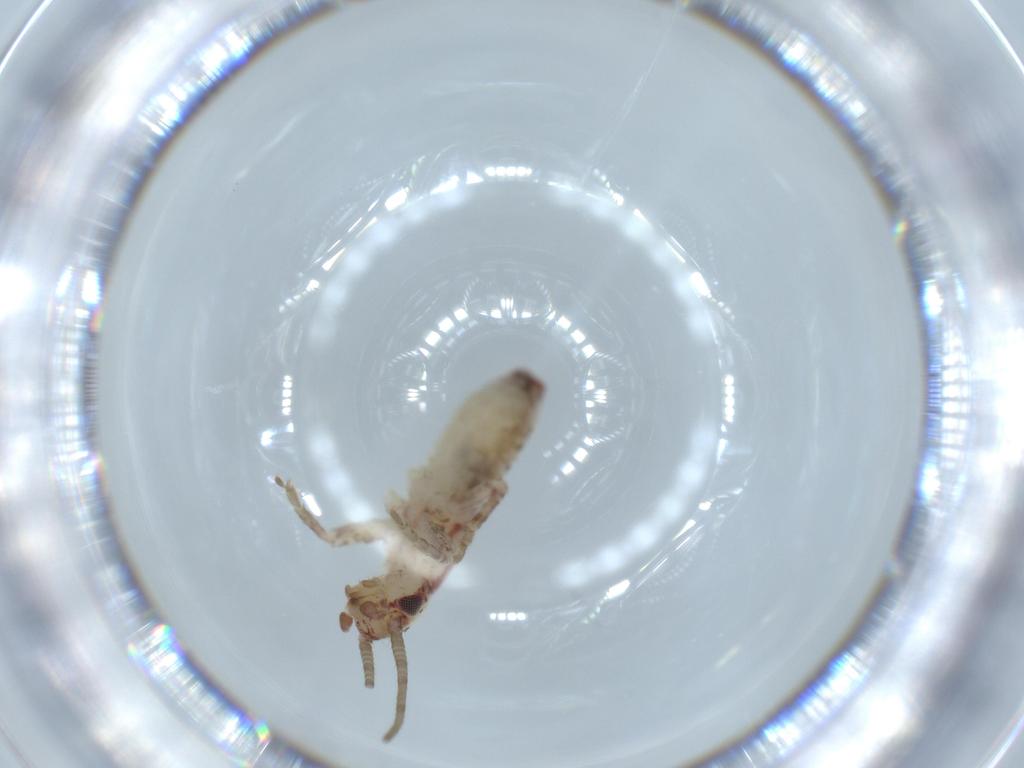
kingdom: Animalia
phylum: Arthropoda
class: Insecta
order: Orthoptera
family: Mogoplistidae
